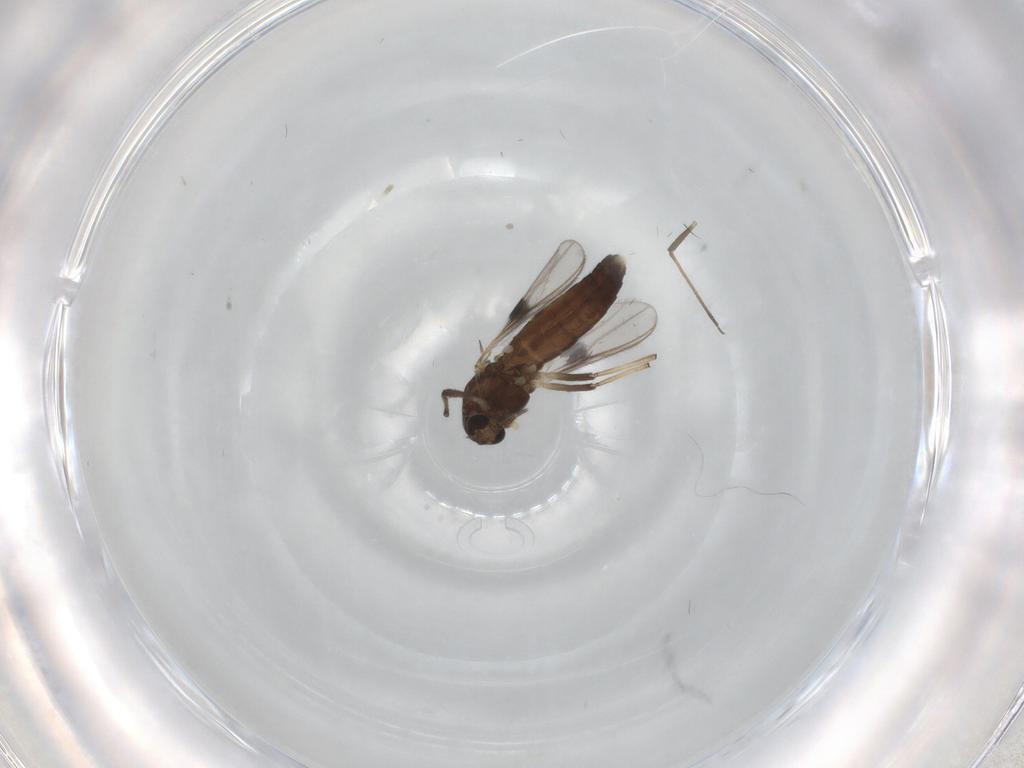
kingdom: Animalia
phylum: Arthropoda
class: Insecta
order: Diptera
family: Chironomidae
